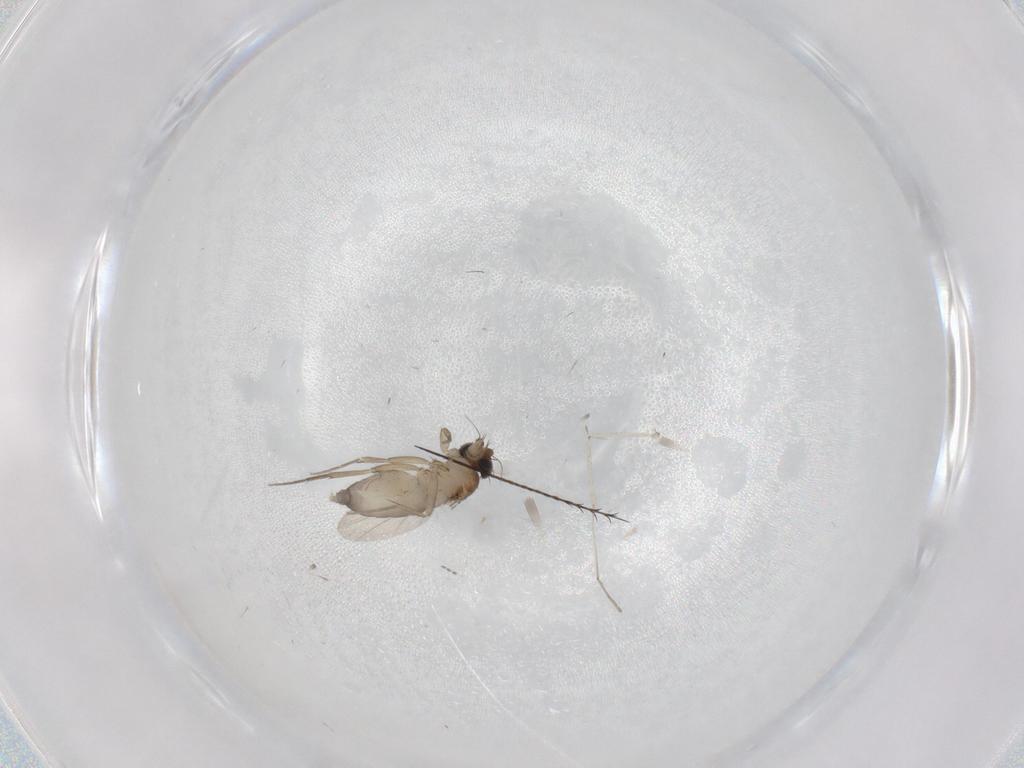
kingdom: Animalia
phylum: Arthropoda
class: Insecta
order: Diptera
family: Phoridae
